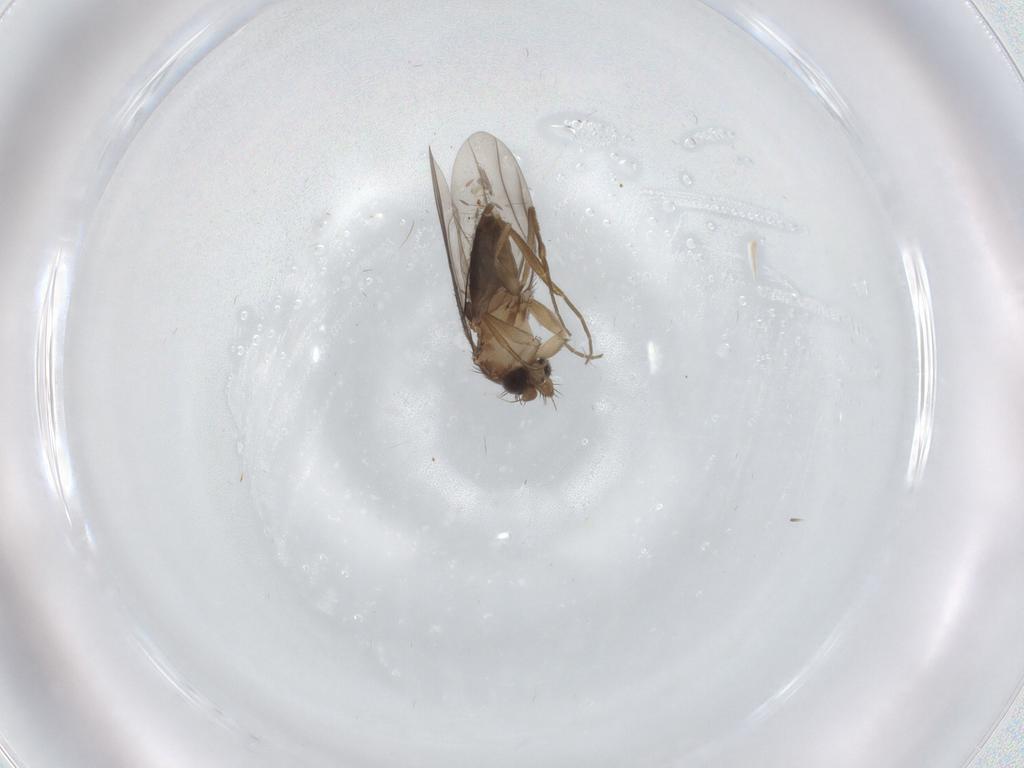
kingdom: Animalia
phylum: Arthropoda
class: Insecta
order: Diptera
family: Phoridae
